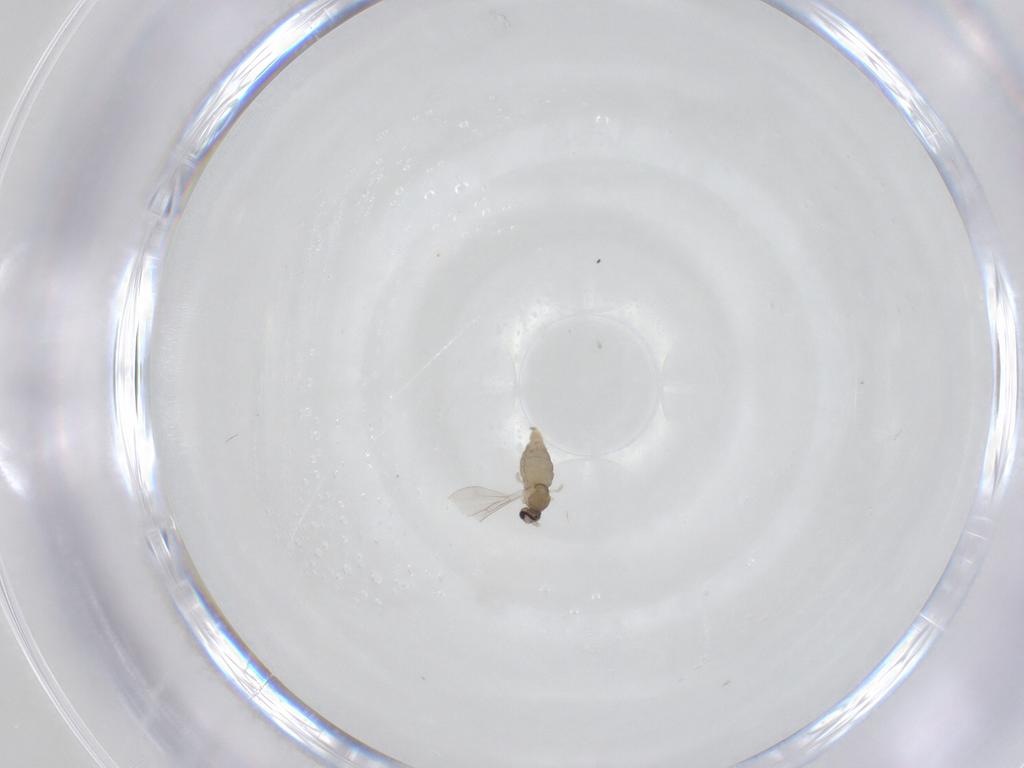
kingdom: Animalia
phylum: Arthropoda
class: Insecta
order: Diptera
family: Cecidomyiidae
